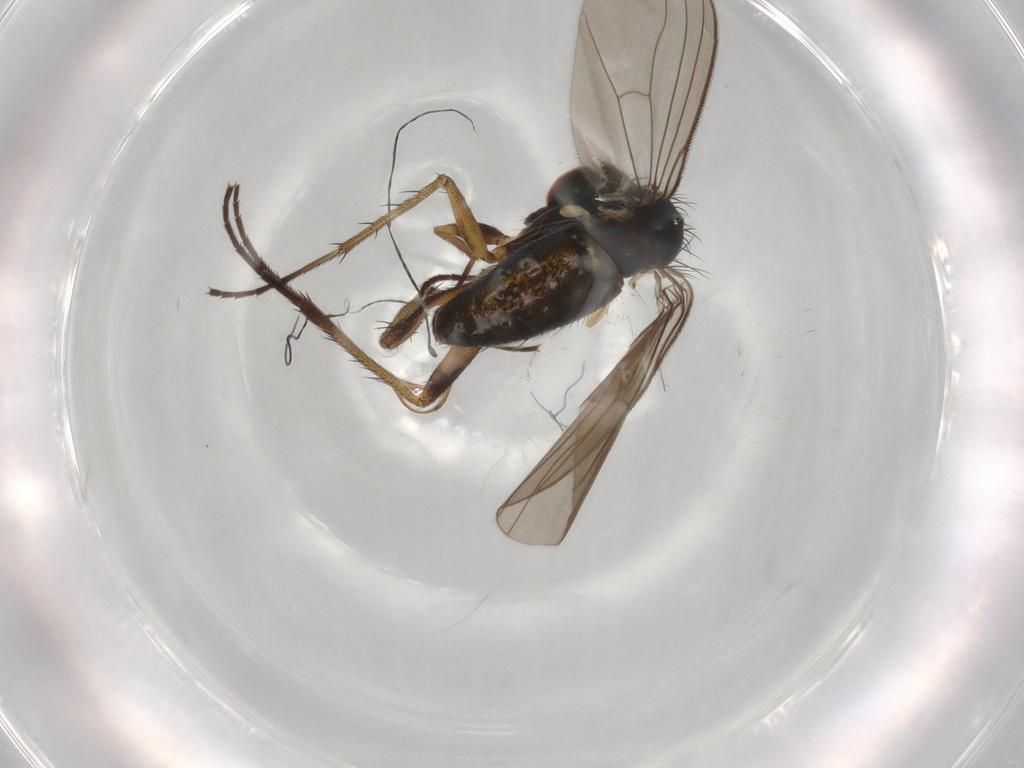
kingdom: Animalia
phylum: Arthropoda
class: Insecta
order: Diptera
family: Dolichopodidae
